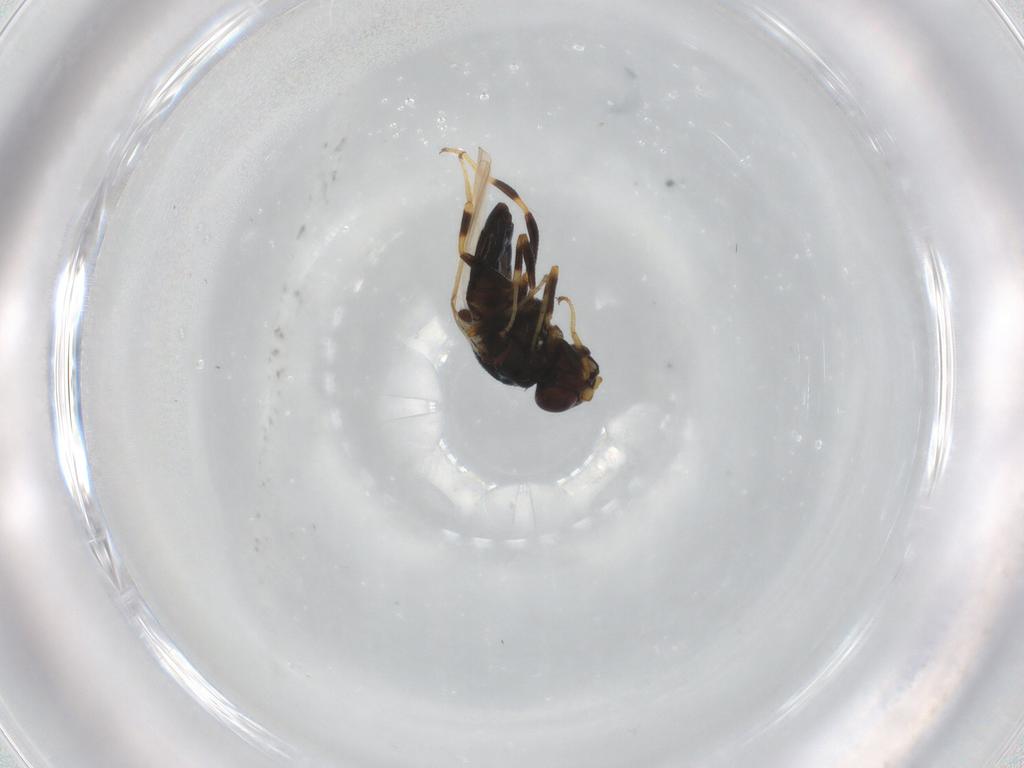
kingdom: Animalia
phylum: Arthropoda
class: Insecta
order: Diptera
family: Chloropidae
